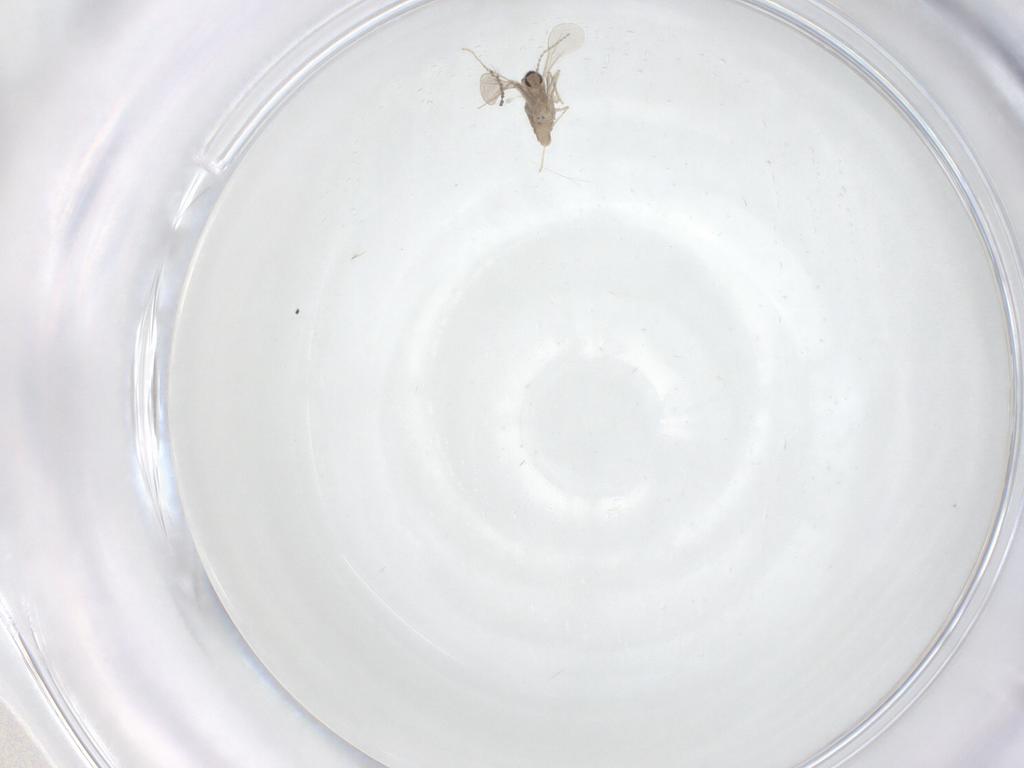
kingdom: Animalia
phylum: Arthropoda
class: Insecta
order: Diptera
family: Cecidomyiidae
